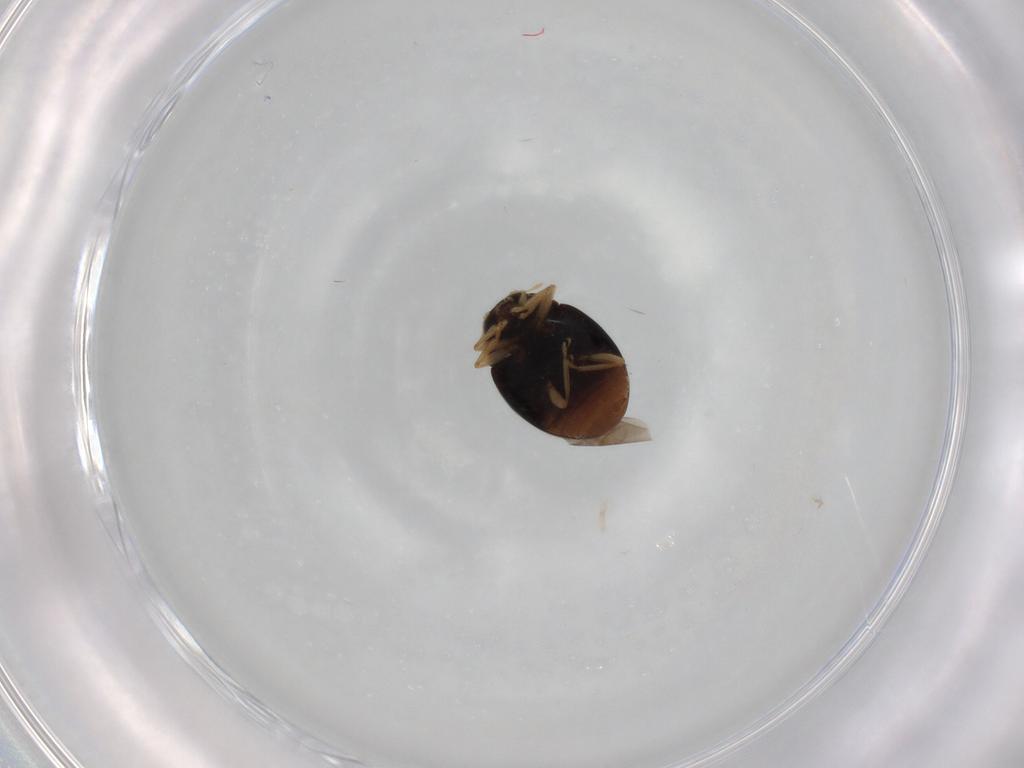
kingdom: Animalia
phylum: Arthropoda
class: Insecta
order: Coleoptera
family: Coccinellidae
